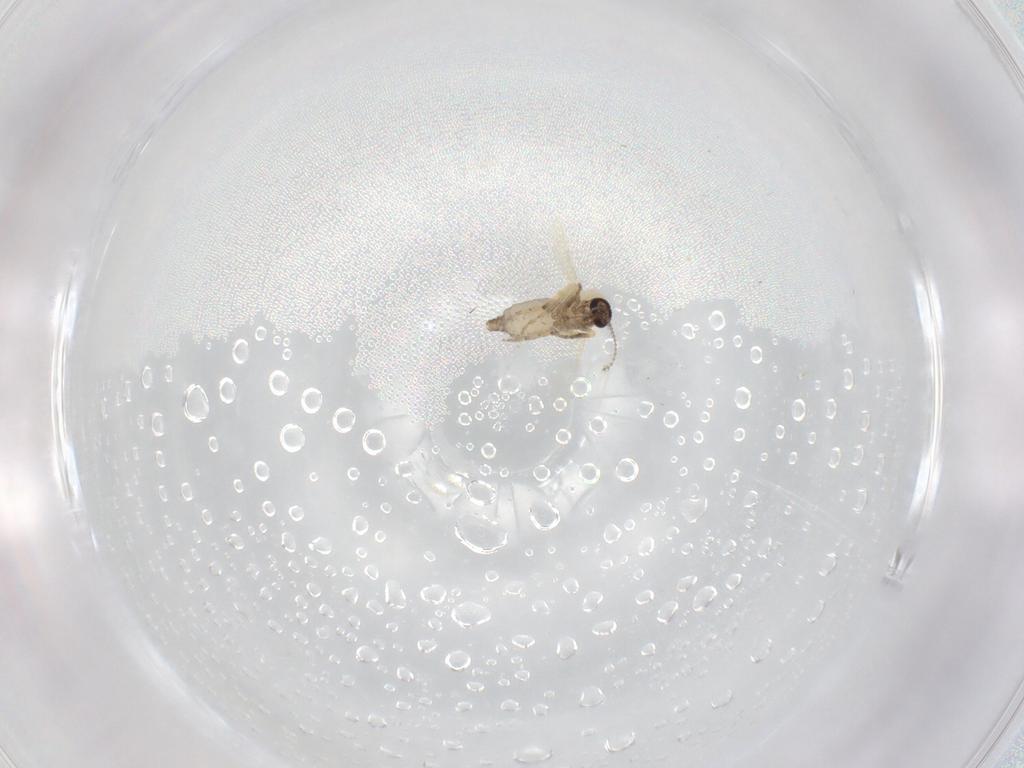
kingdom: Animalia
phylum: Arthropoda
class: Insecta
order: Diptera
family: Ceratopogonidae
